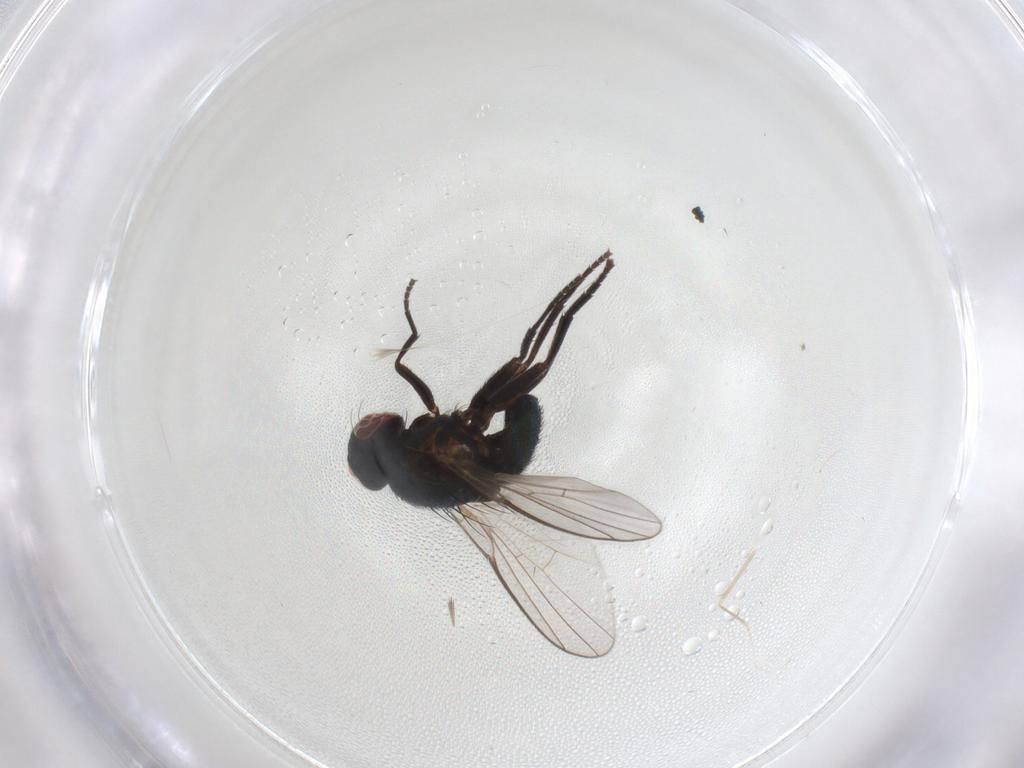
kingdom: Animalia
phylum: Arthropoda
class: Insecta
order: Diptera
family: Agromyzidae
